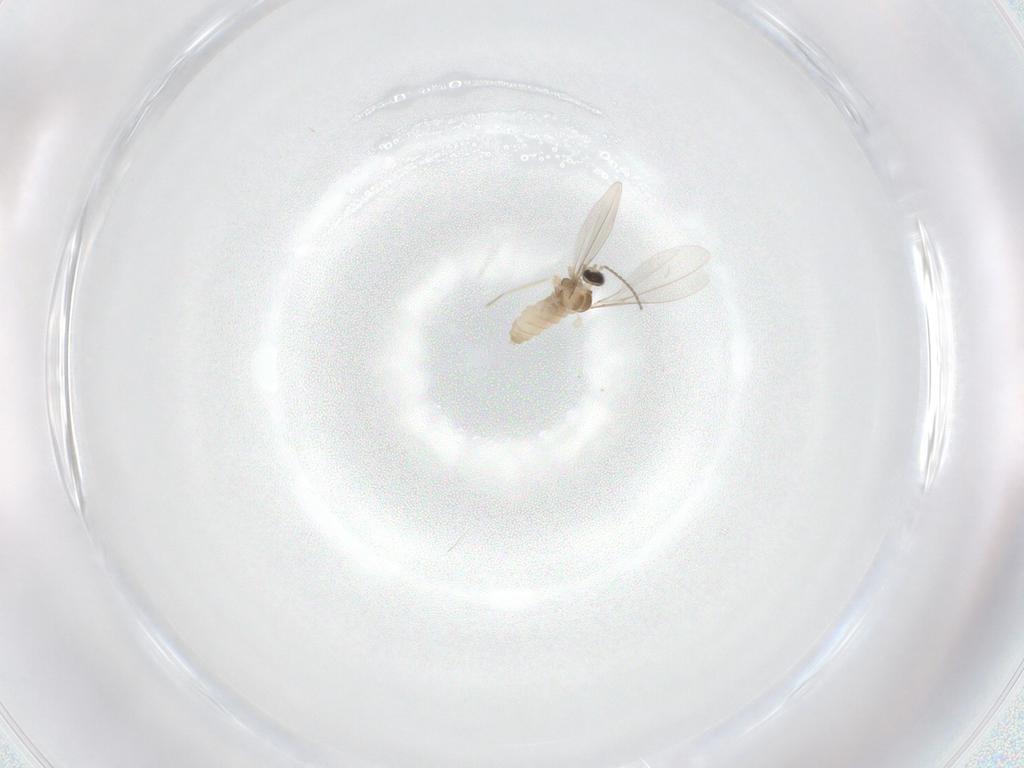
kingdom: Animalia
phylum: Arthropoda
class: Insecta
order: Diptera
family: Cecidomyiidae
